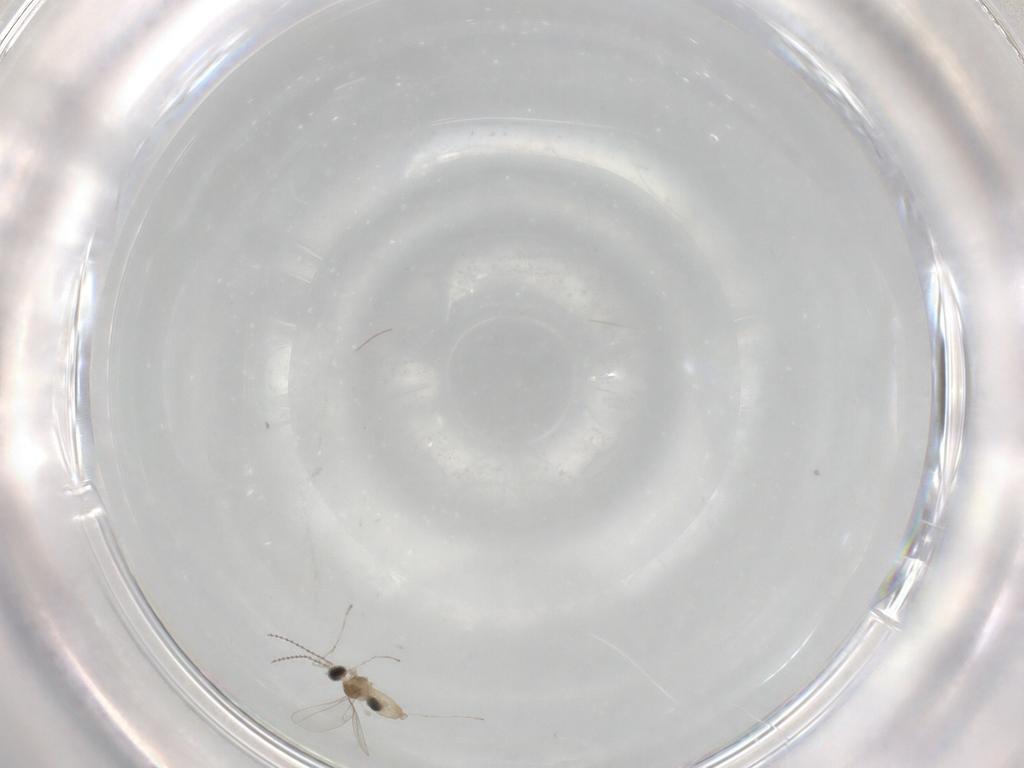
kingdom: Animalia
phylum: Arthropoda
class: Insecta
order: Diptera
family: Cecidomyiidae
